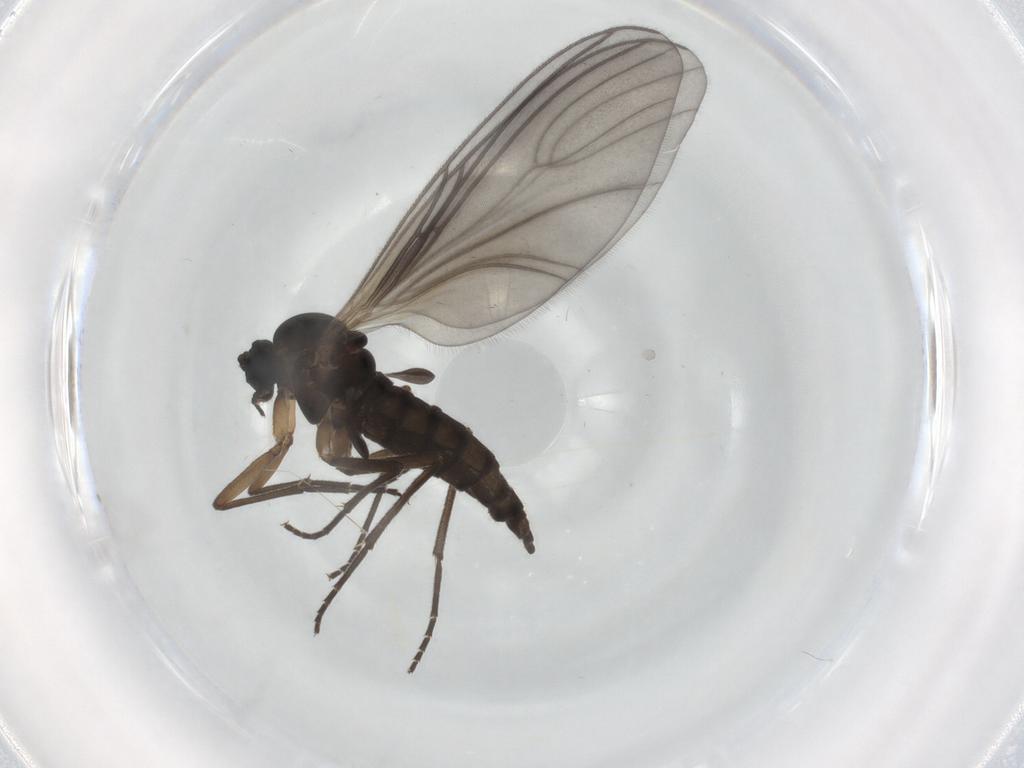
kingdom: Animalia
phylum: Arthropoda
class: Insecta
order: Diptera
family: Sciaridae
